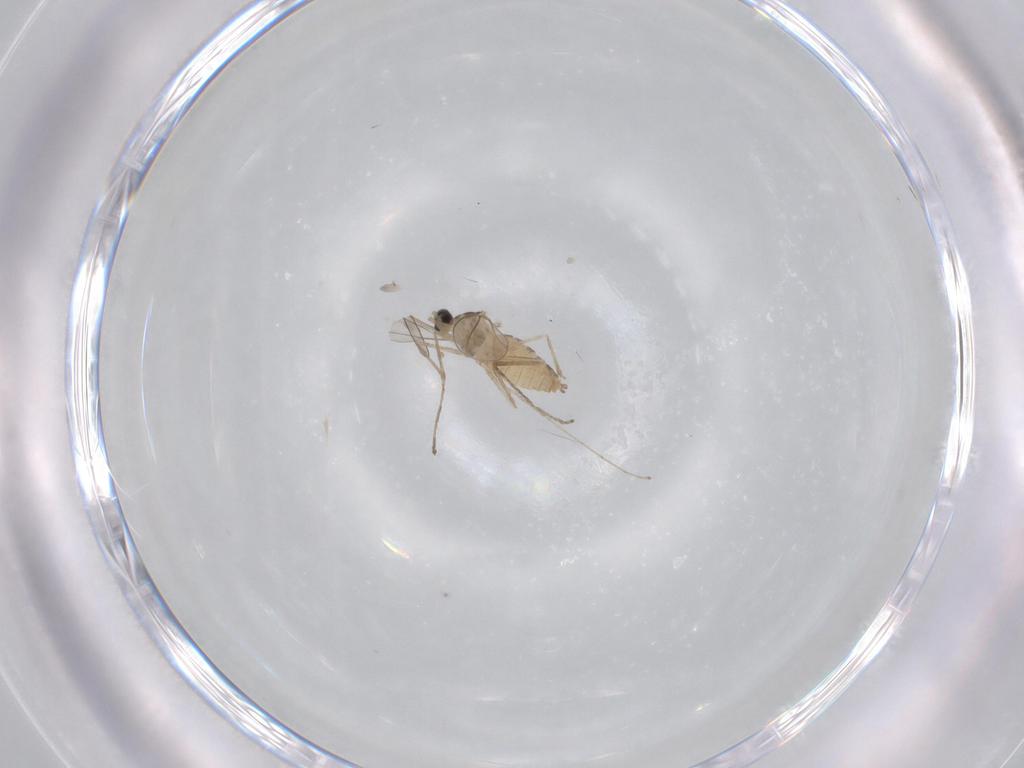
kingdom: Animalia
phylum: Arthropoda
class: Insecta
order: Diptera
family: Cecidomyiidae
